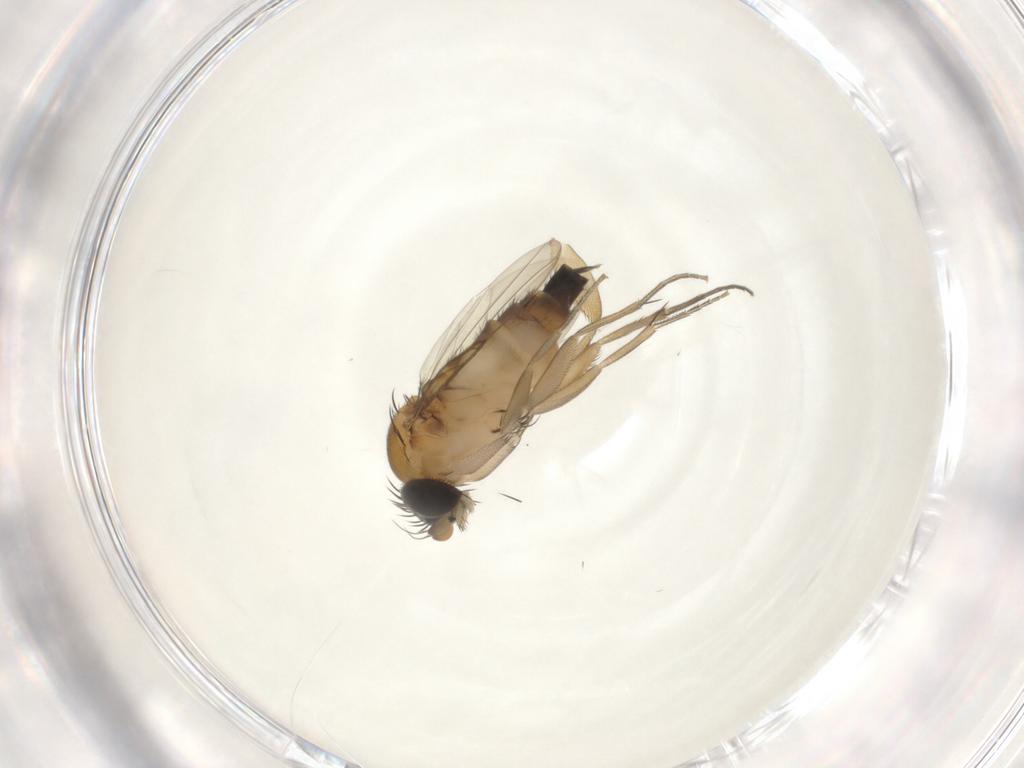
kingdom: Animalia
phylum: Arthropoda
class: Insecta
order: Diptera
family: Phoridae
